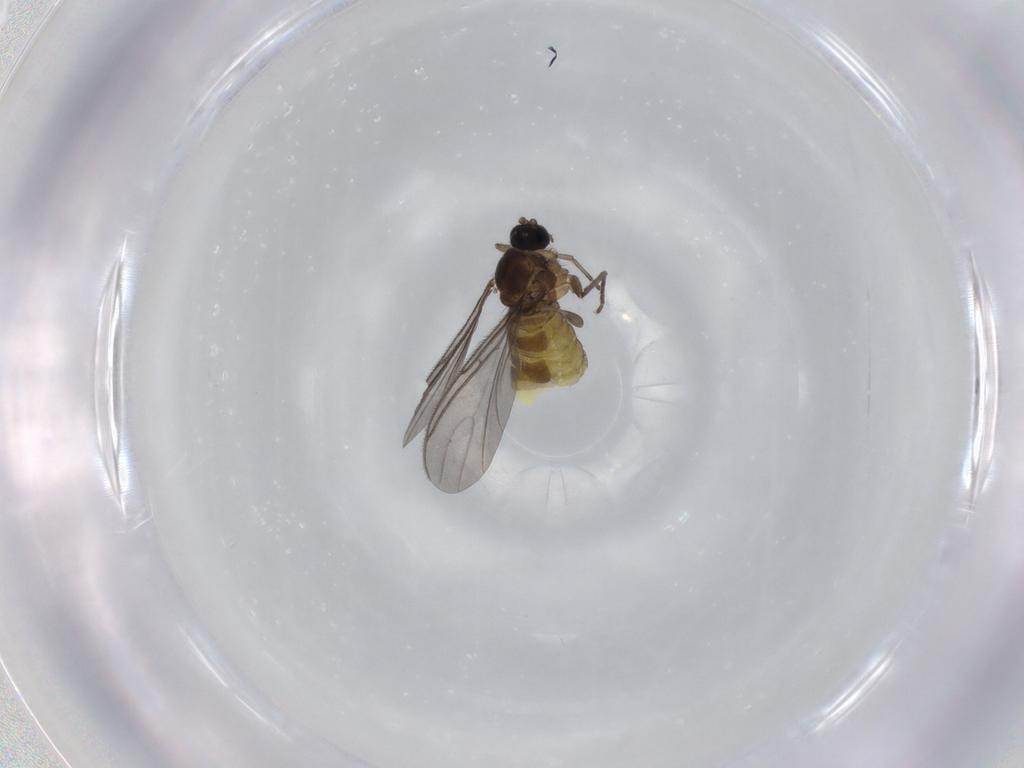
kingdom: Animalia
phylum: Arthropoda
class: Insecta
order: Diptera
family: Sciaridae
